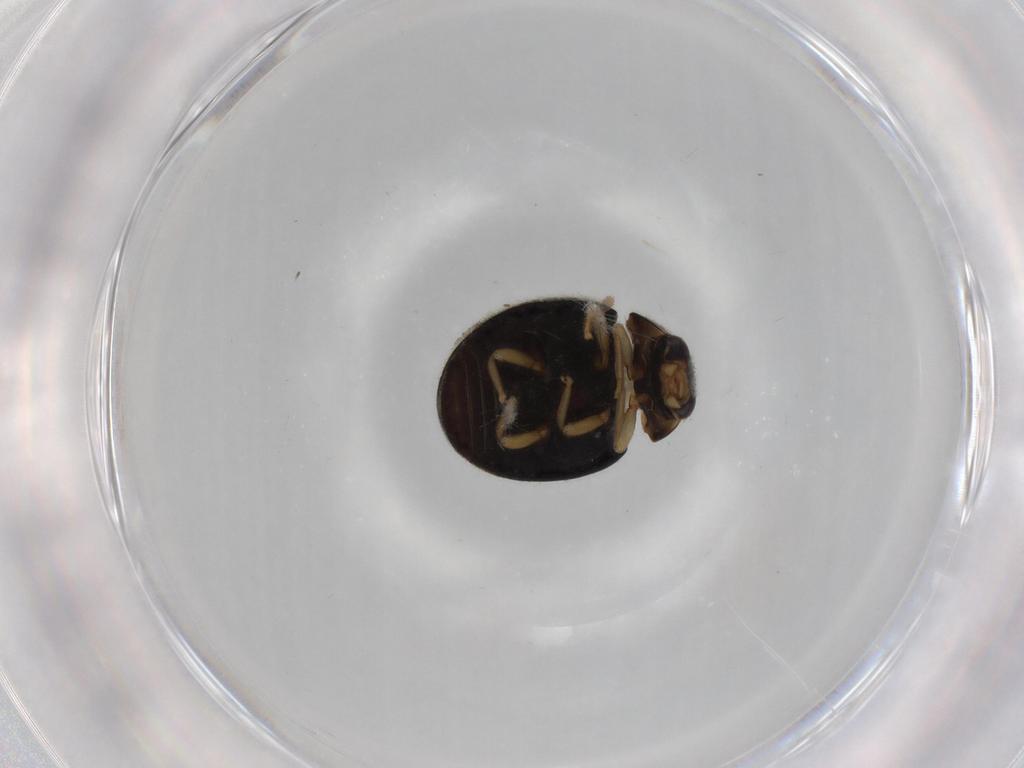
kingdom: Animalia
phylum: Arthropoda
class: Insecta
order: Coleoptera
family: Coccinellidae
